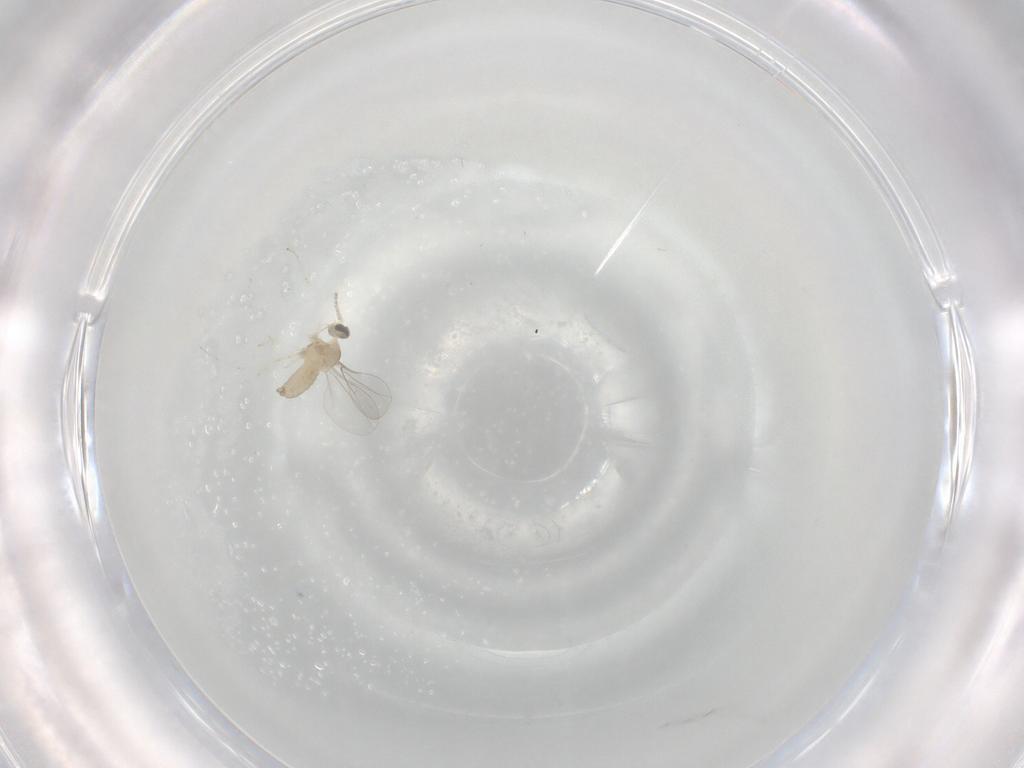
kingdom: Animalia
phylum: Arthropoda
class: Insecta
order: Diptera
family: Cecidomyiidae
